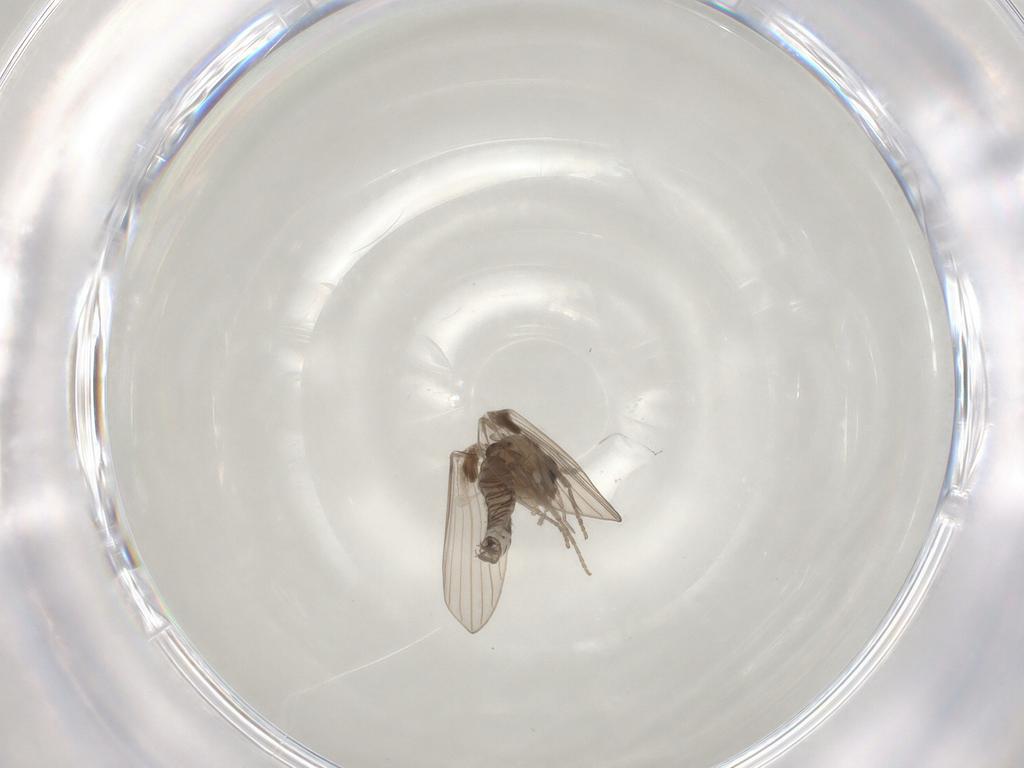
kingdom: Animalia
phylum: Arthropoda
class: Insecta
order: Diptera
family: Psychodidae
